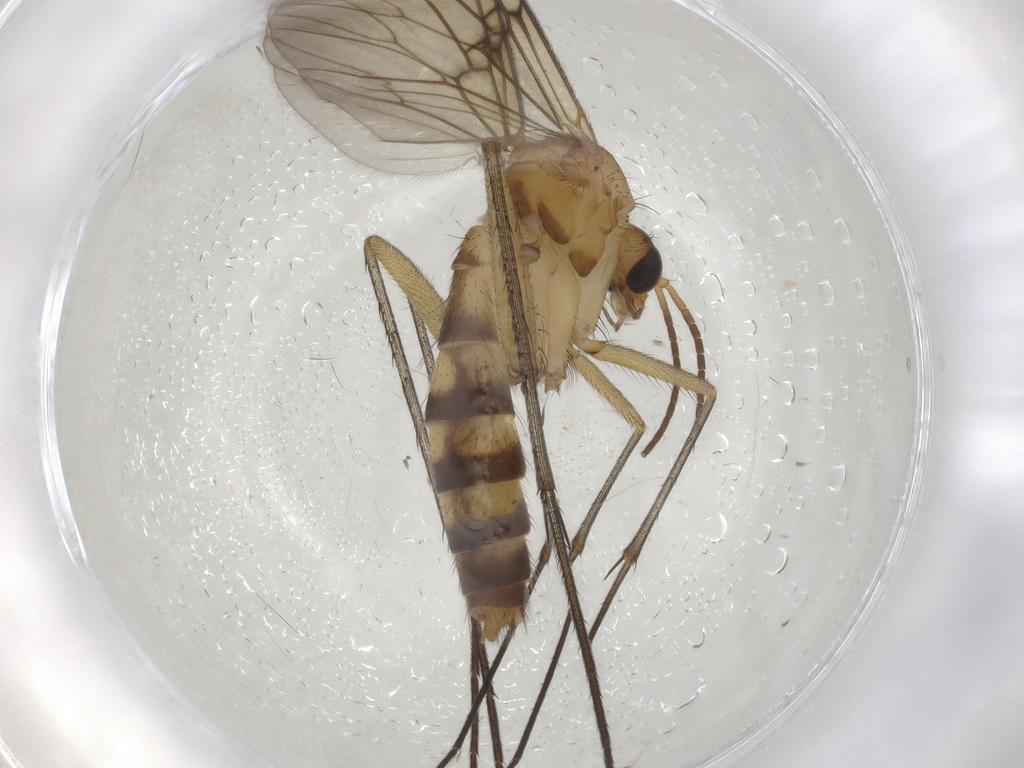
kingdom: Animalia
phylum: Arthropoda
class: Insecta
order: Diptera
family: Mycetophilidae
